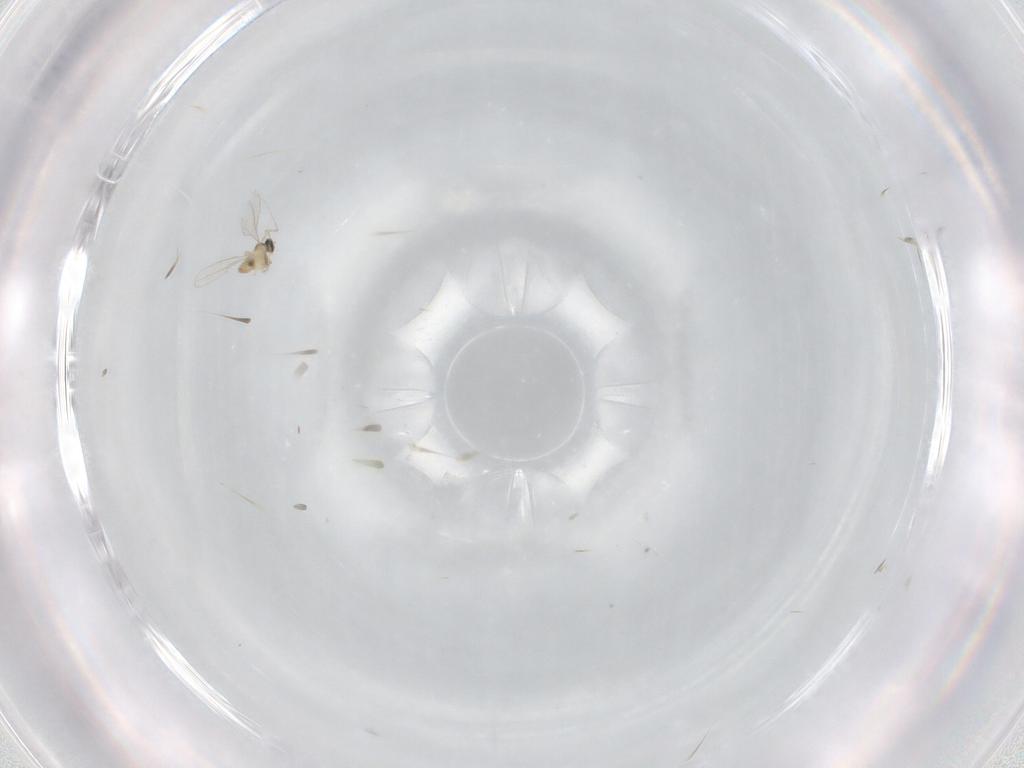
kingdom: Animalia
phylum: Arthropoda
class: Insecta
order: Diptera
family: Cecidomyiidae
